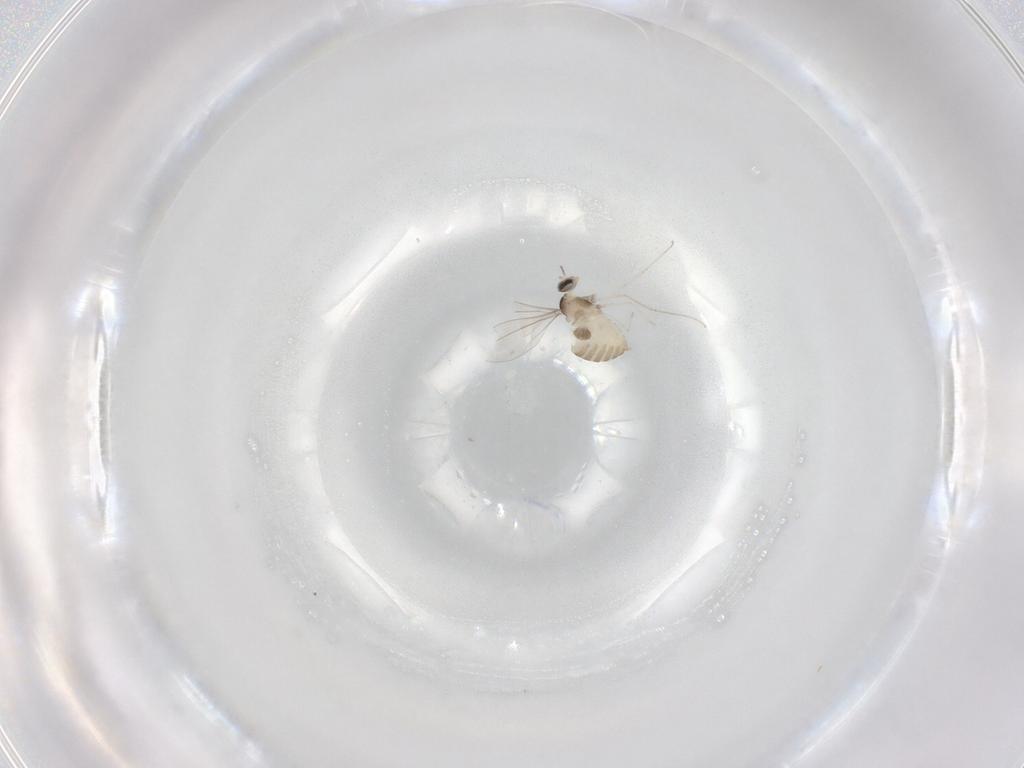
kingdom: Animalia
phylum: Arthropoda
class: Insecta
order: Diptera
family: Cecidomyiidae
